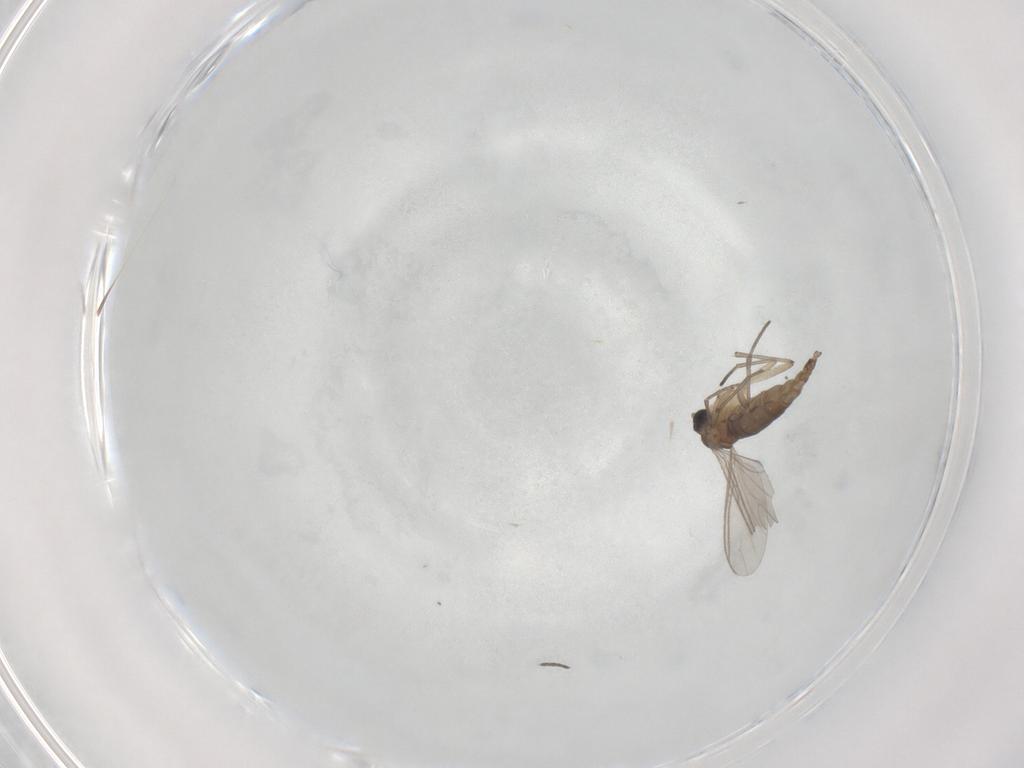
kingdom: Animalia
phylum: Arthropoda
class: Insecta
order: Diptera
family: Sciaridae
